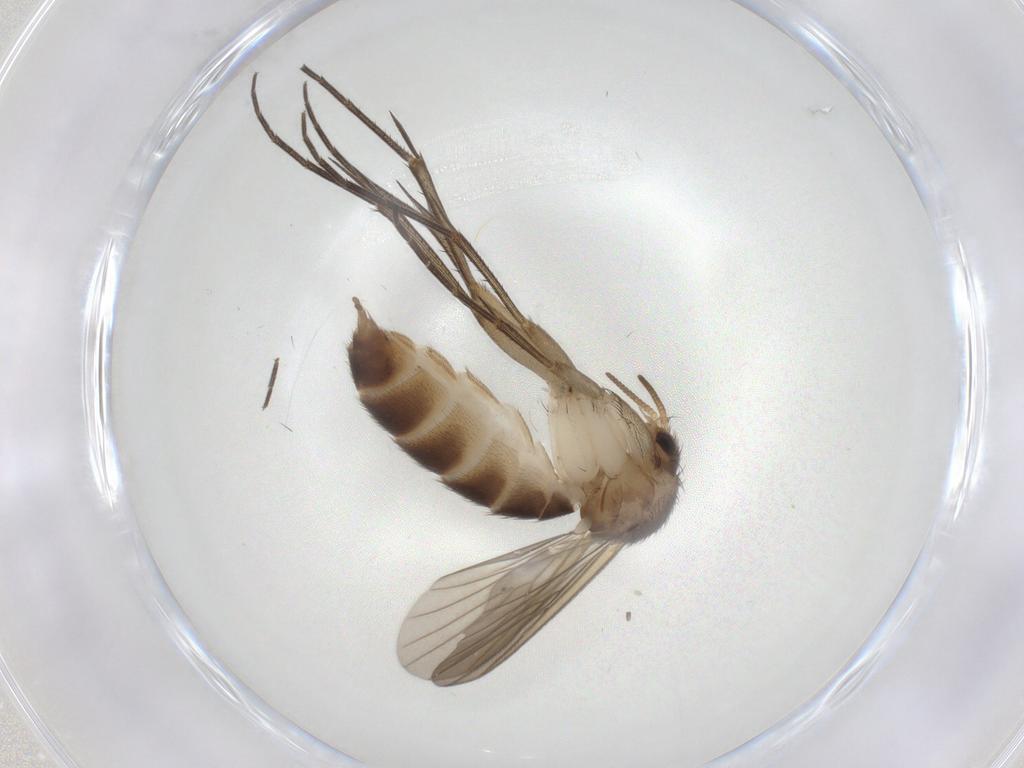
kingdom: Animalia
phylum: Arthropoda
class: Insecta
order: Diptera
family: Mycetophilidae
